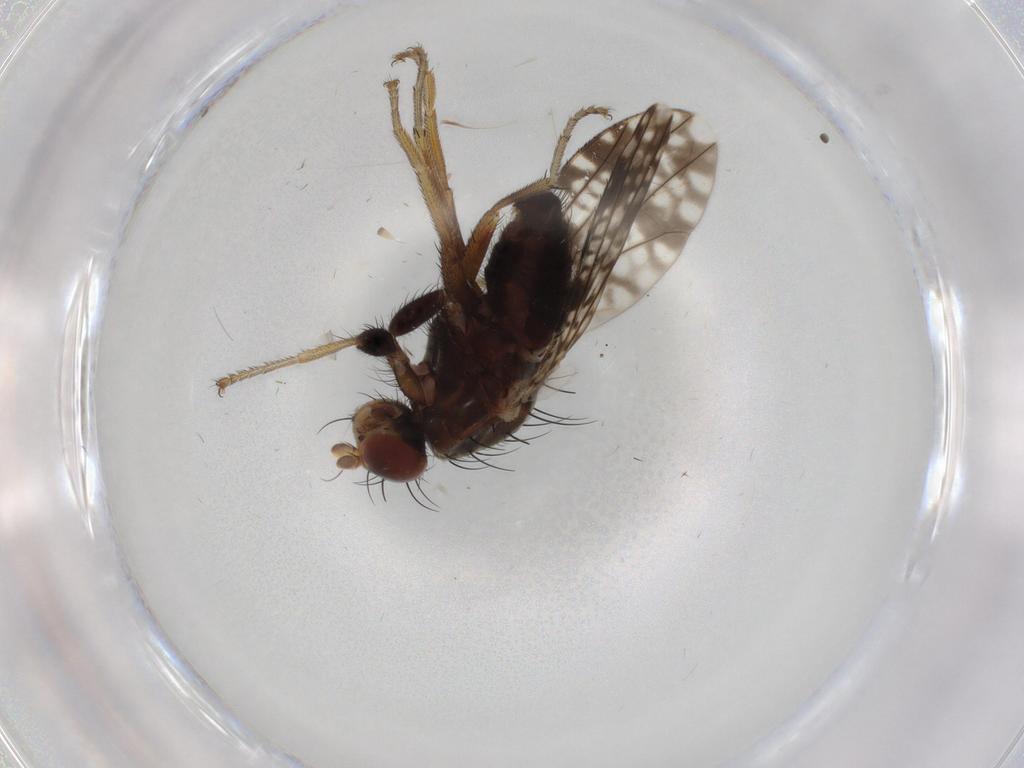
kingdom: Animalia
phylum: Arthropoda
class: Insecta
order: Diptera
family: Tephritidae
